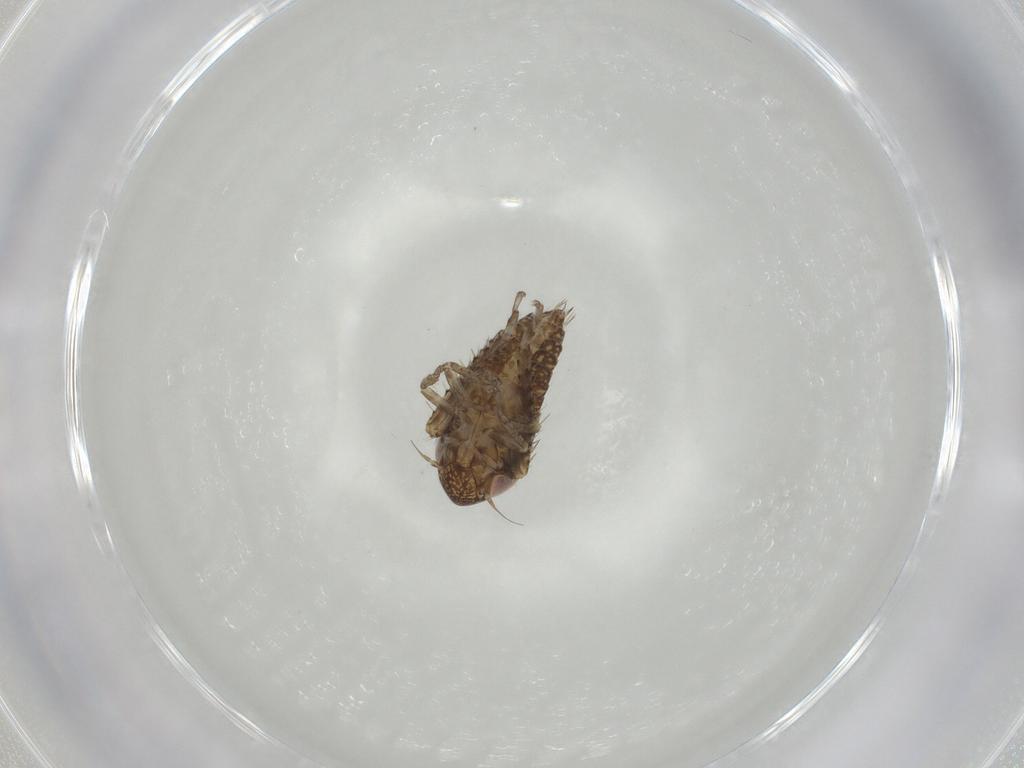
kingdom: Animalia
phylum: Arthropoda
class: Insecta
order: Hemiptera
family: Cicadellidae
